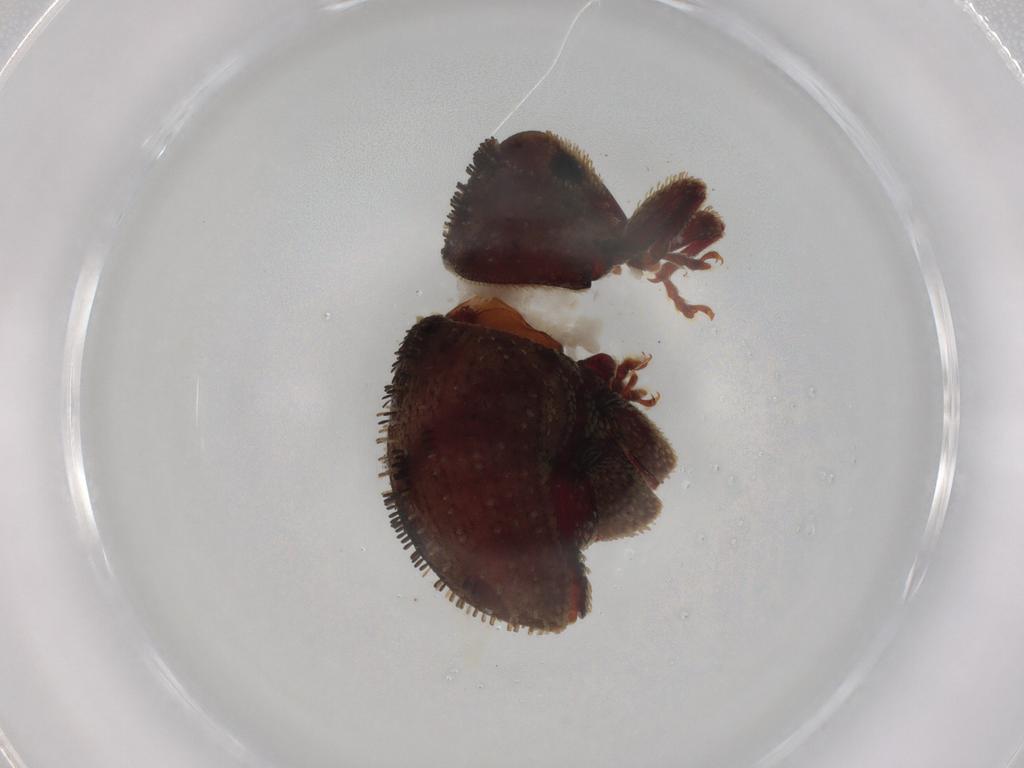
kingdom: Animalia
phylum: Arthropoda
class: Insecta
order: Coleoptera
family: Curculionidae
